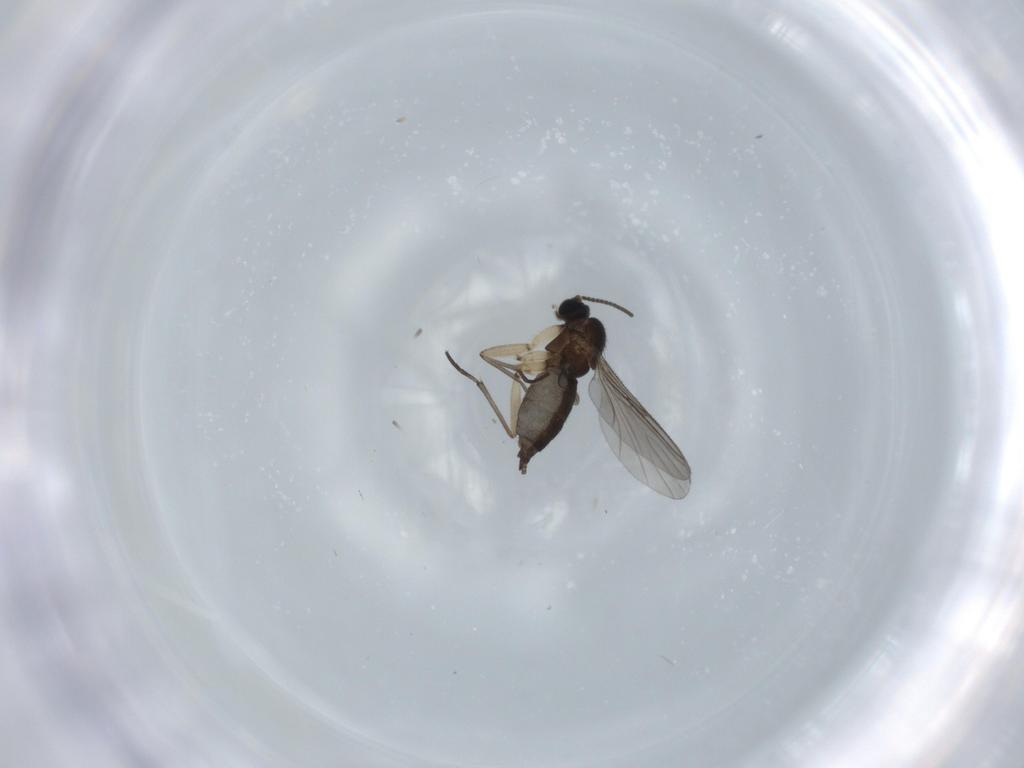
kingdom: Animalia
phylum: Arthropoda
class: Insecta
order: Diptera
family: Sciaridae
